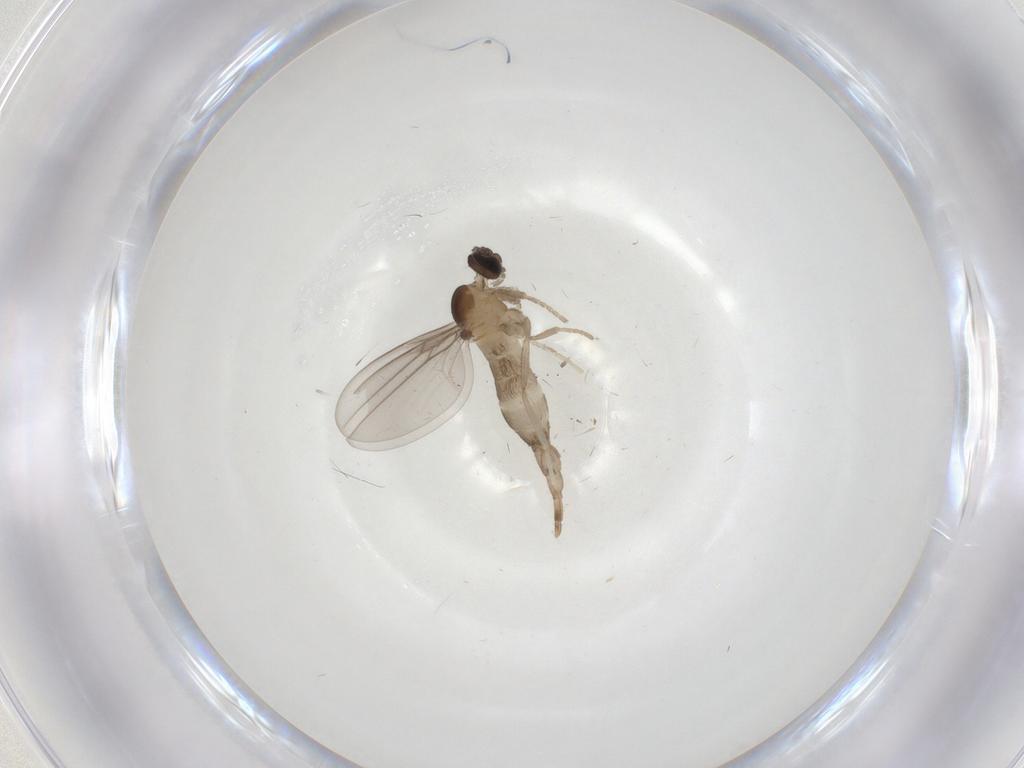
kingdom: Animalia
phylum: Arthropoda
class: Insecta
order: Diptera
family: Cecidomyiidae
